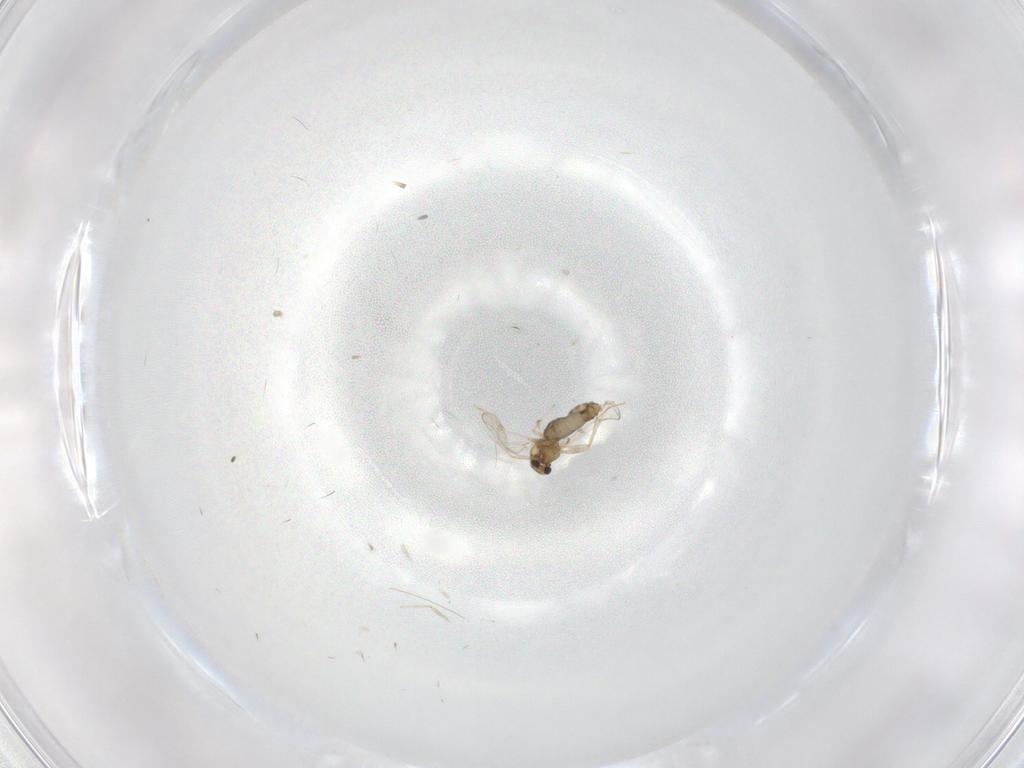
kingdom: Animalia
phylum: Arthropoda
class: Insecta
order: Diptera
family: Chironomidae
